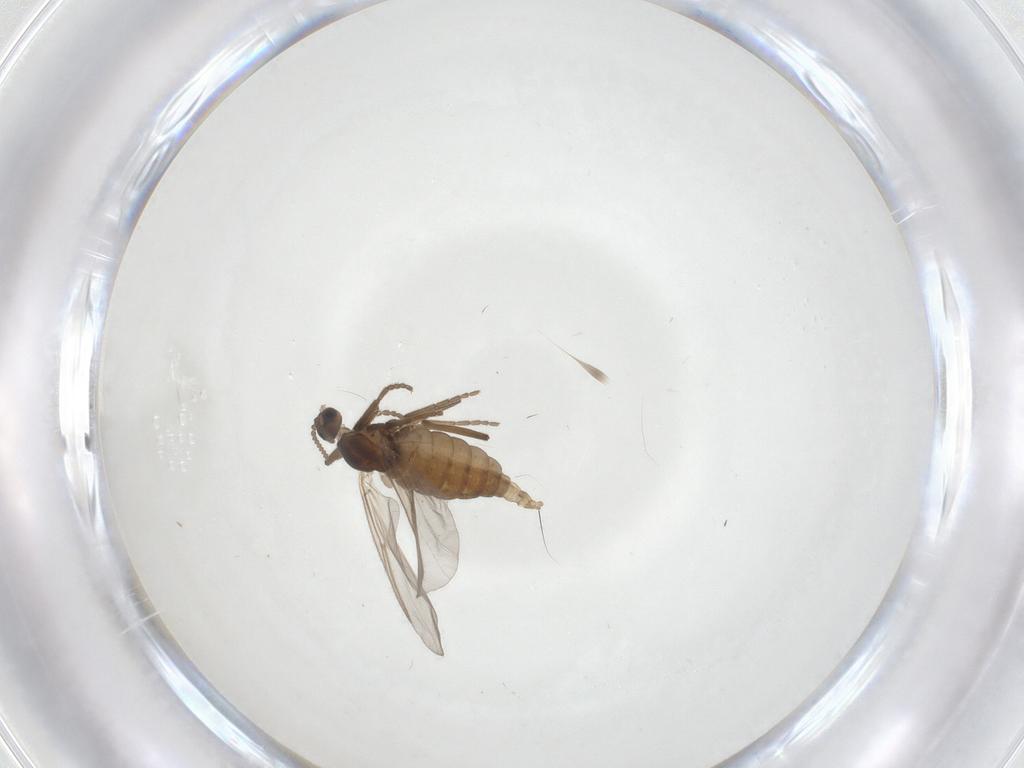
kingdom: Animalia
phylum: Arthropoda
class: Insecta
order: Diptera
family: Cecidomyiidae
